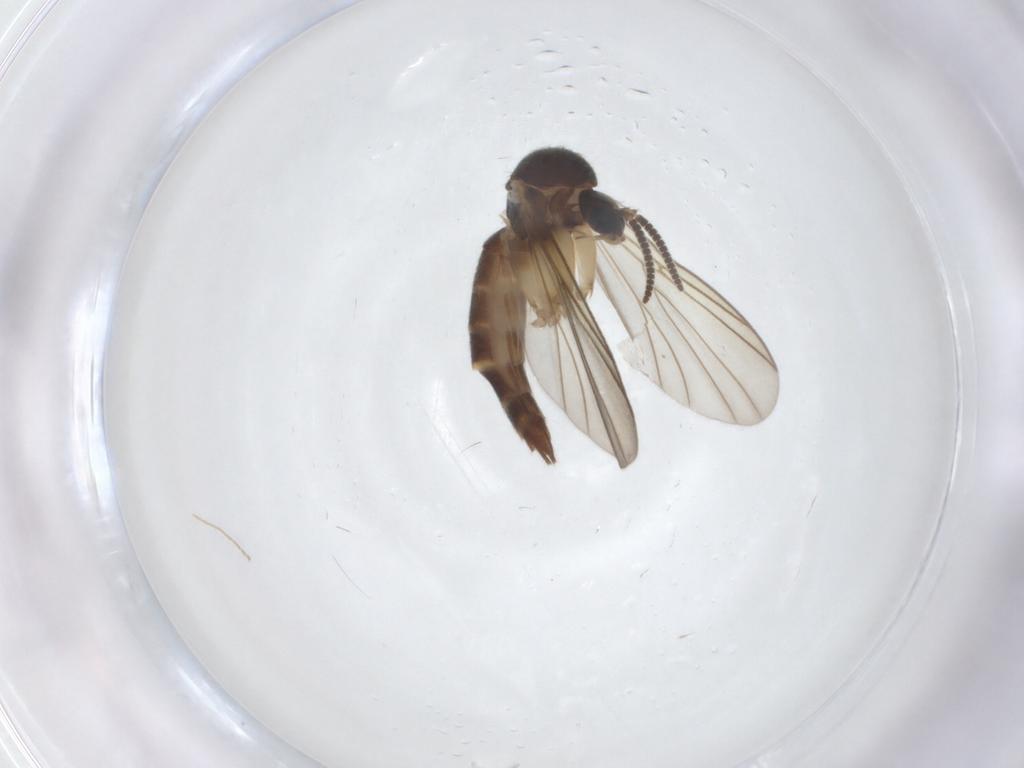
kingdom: Animalia
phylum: Arthropoda
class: Insecta
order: Diptera
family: Mycetophilidae
